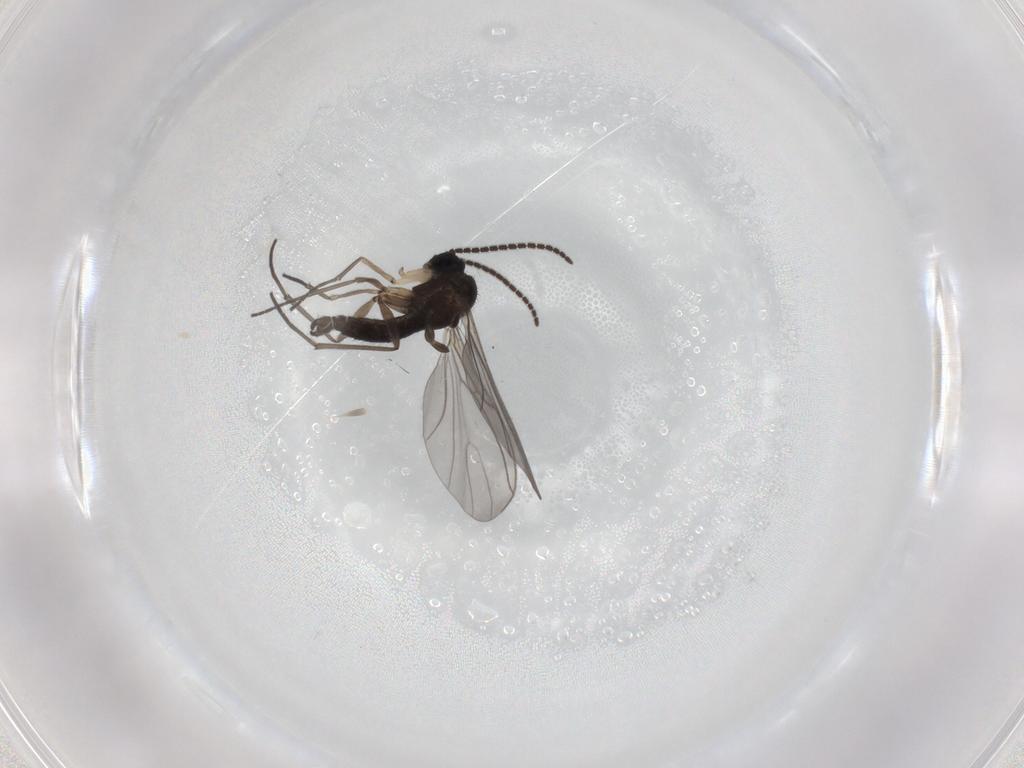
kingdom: Animalia
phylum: Arthropoda
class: Insecta
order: Diptera
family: Sciaridae
